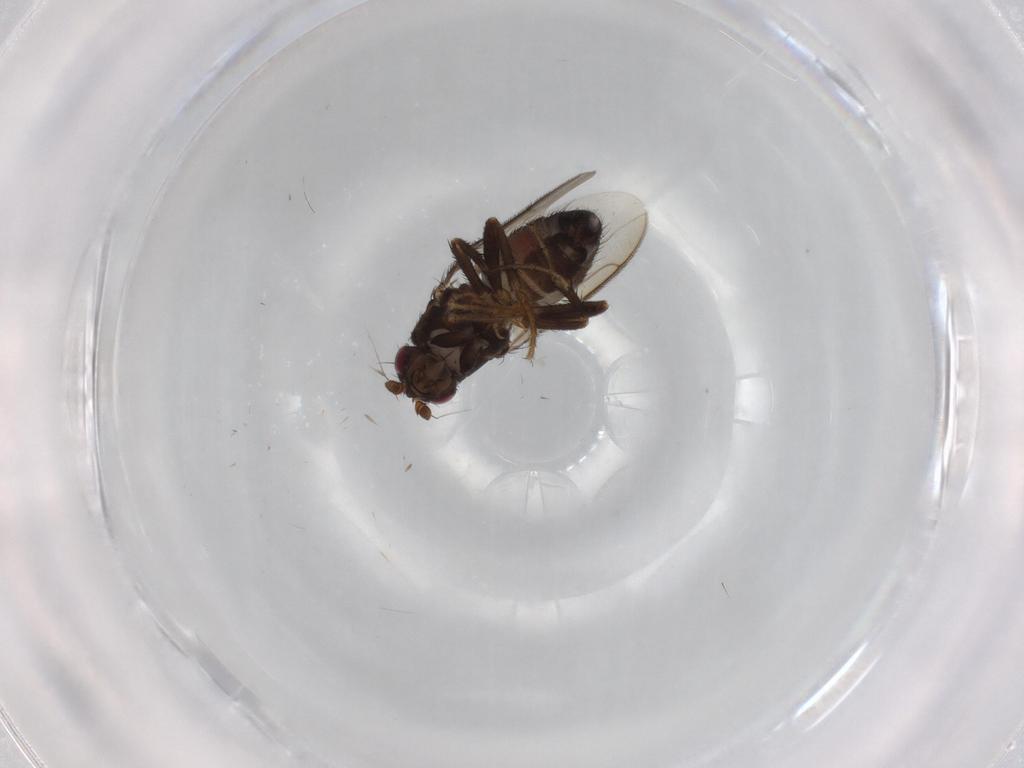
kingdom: Animalia
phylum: Arthropoda
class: Insecta
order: Diptera
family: Sphaeroceridae
